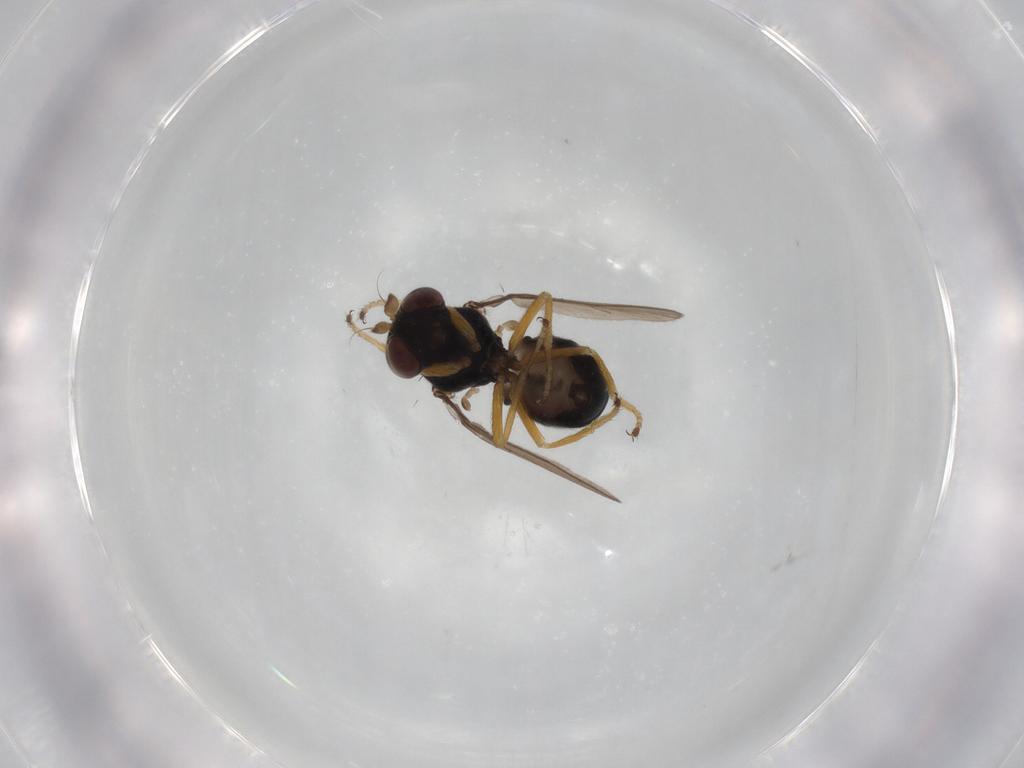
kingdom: Animalia
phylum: Arthropoda
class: Insecta
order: Diptera
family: Ephydridae
